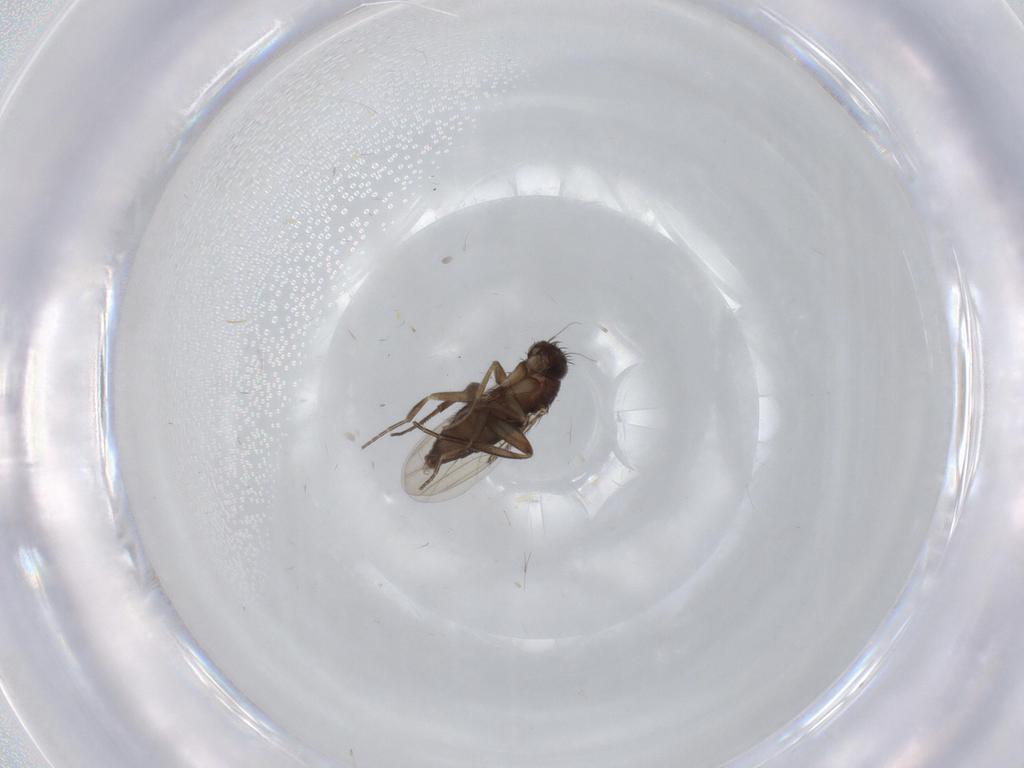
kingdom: Animalia
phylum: Arthropoda
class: Insecta
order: Diptera
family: Phoridae
